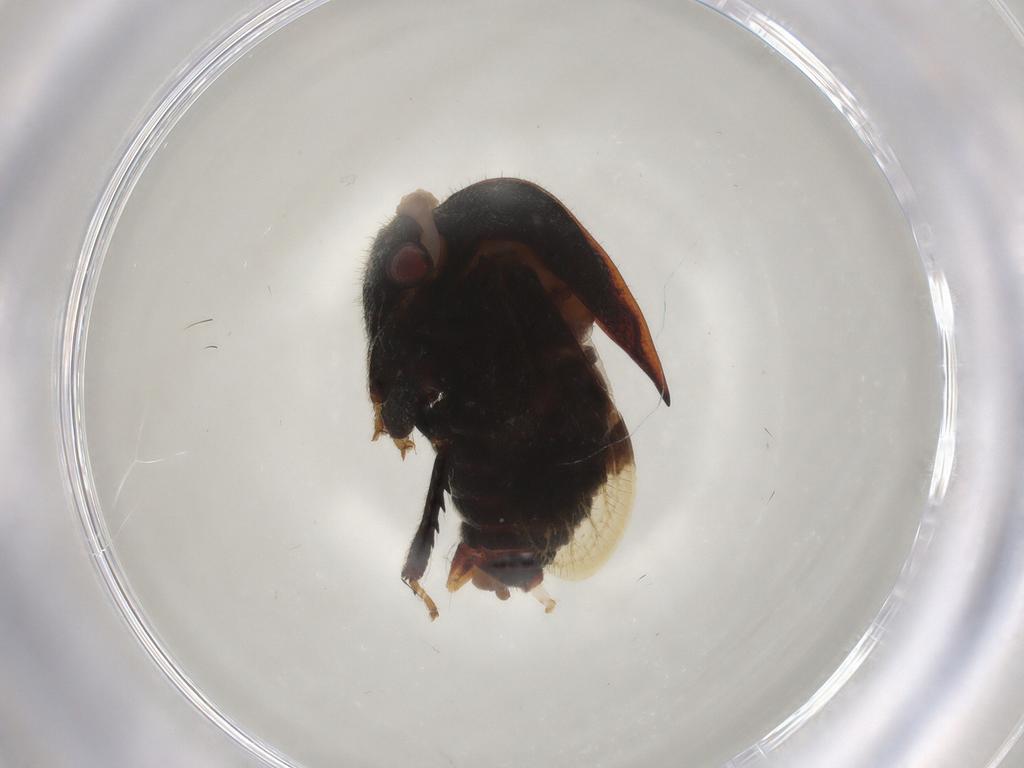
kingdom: Animalia
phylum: Arthropoda
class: Insecta
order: Hemiptera
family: Membracidae
